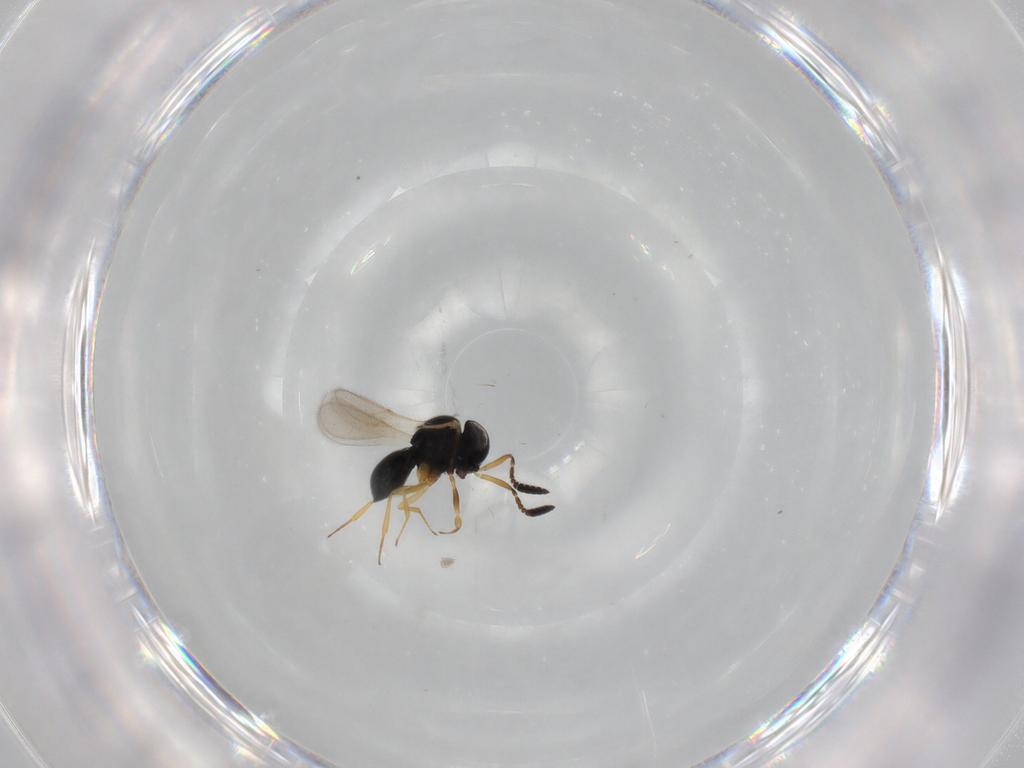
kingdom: Animalia
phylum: Arthropoda
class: Insecta
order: Hymenoptera
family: Scelionidae
